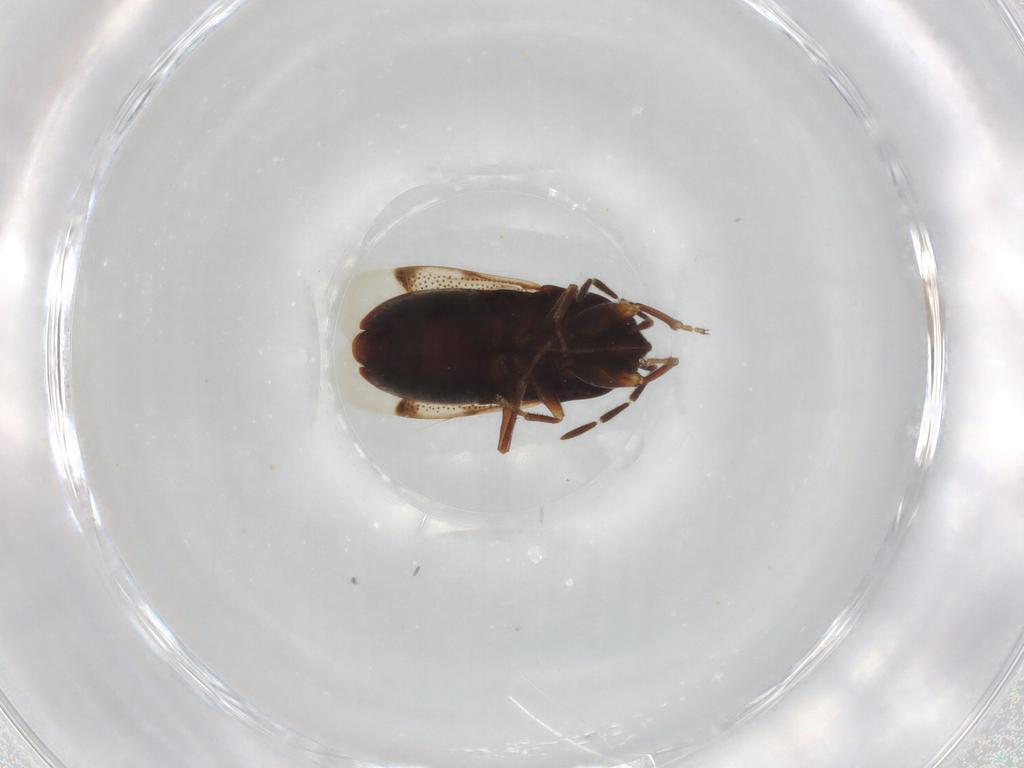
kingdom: Animalia
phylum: Arthropoda
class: Insecta
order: Hemiptera
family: Rhyparochromidae
